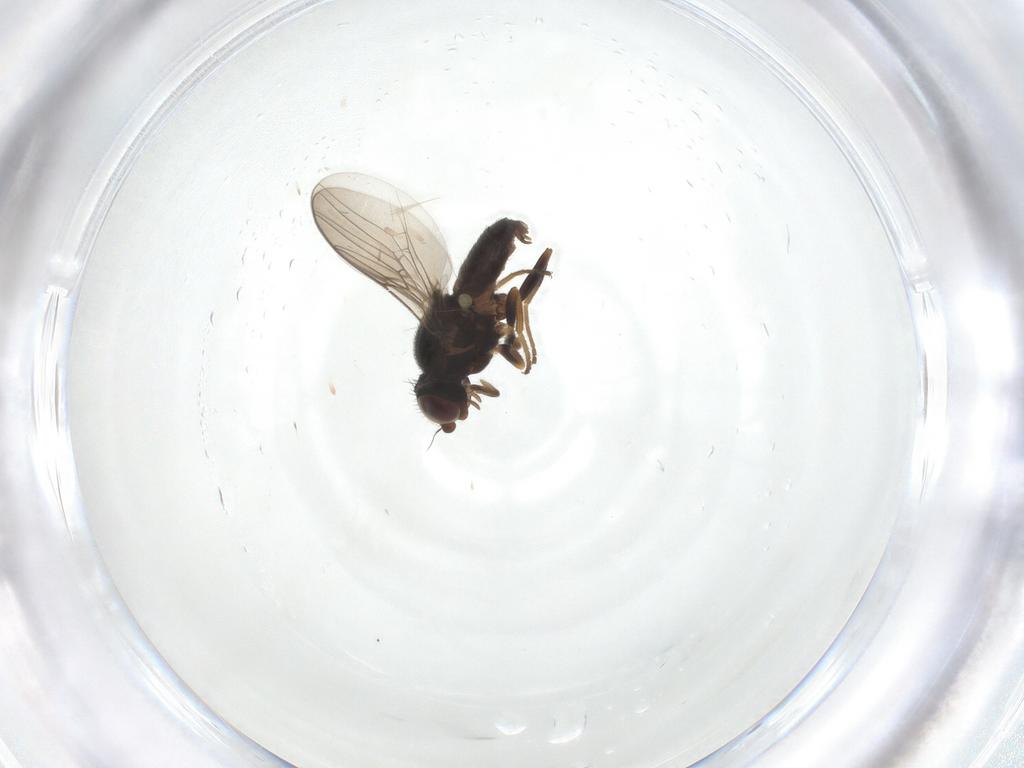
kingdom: Animalia
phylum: Arthropoda
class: Insecta
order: Diptera
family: Chloropidae
